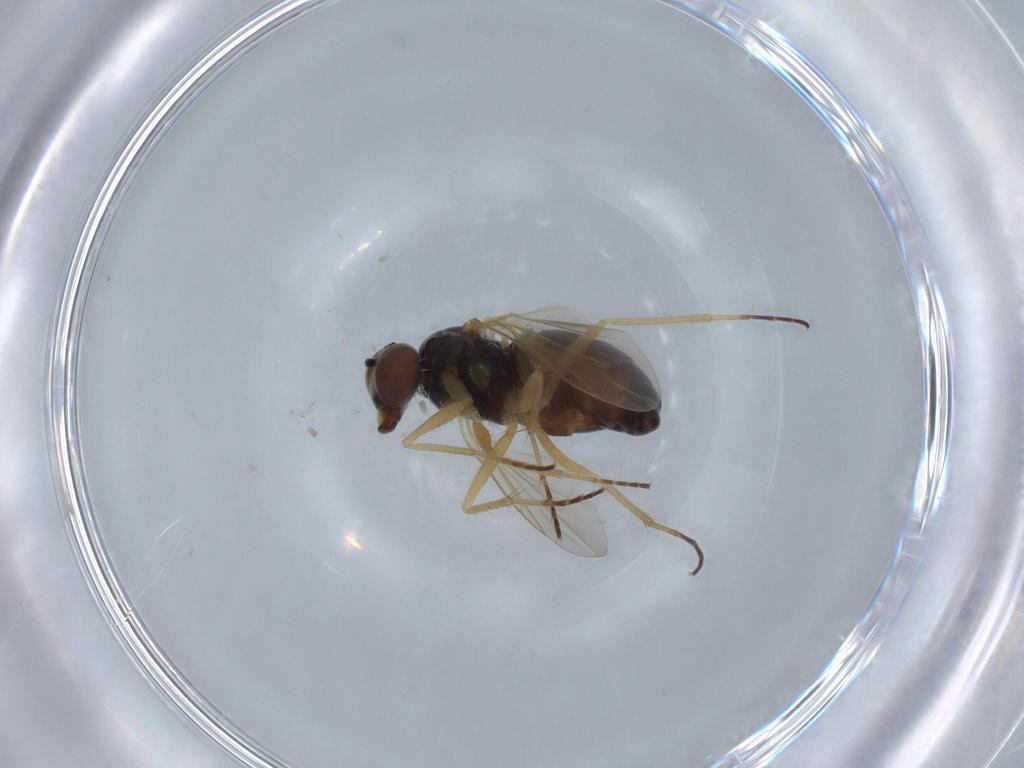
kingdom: Animalia
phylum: Arthropoda
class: Insecta
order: Diptera
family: Dolichopodidae
